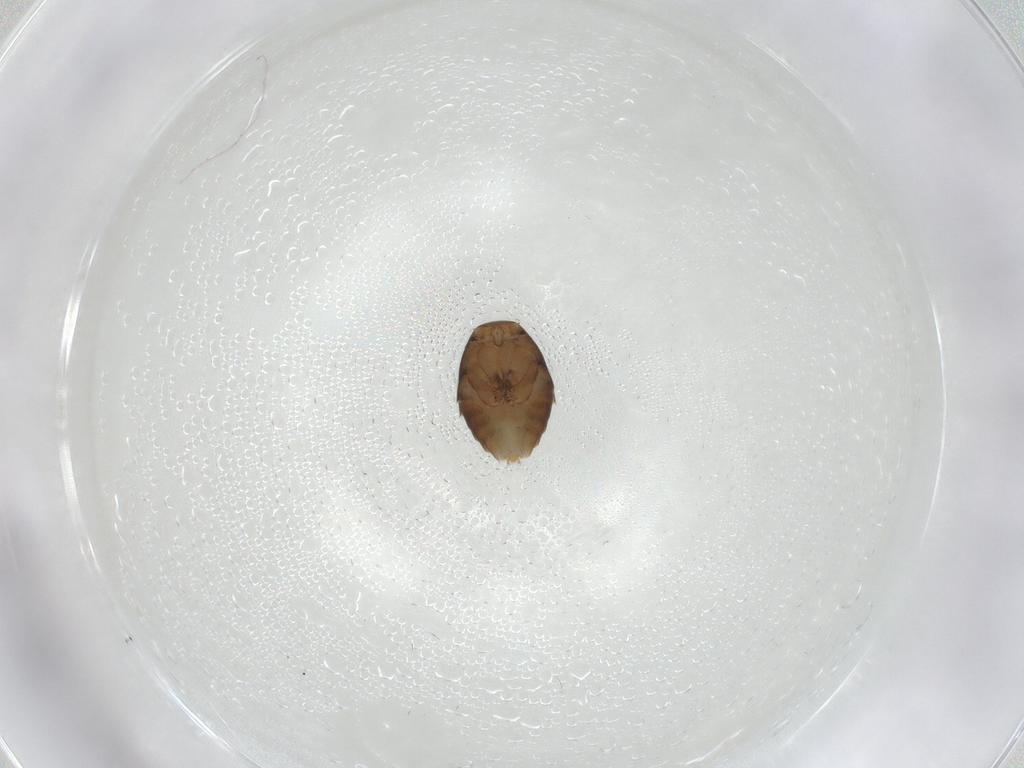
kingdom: Animalia
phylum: Arthropoda
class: Insecta
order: Diptera
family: Phoridae
